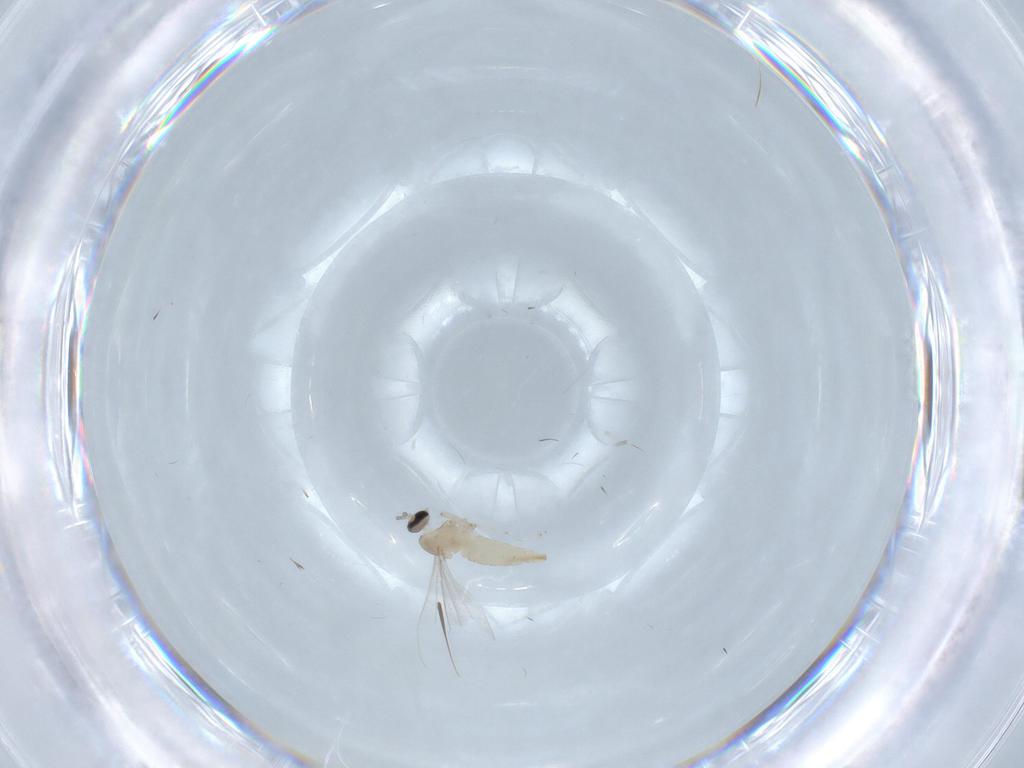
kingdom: Animalia
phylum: Arthropoda
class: Insecta
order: Diptera
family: Cecidomyiidae
